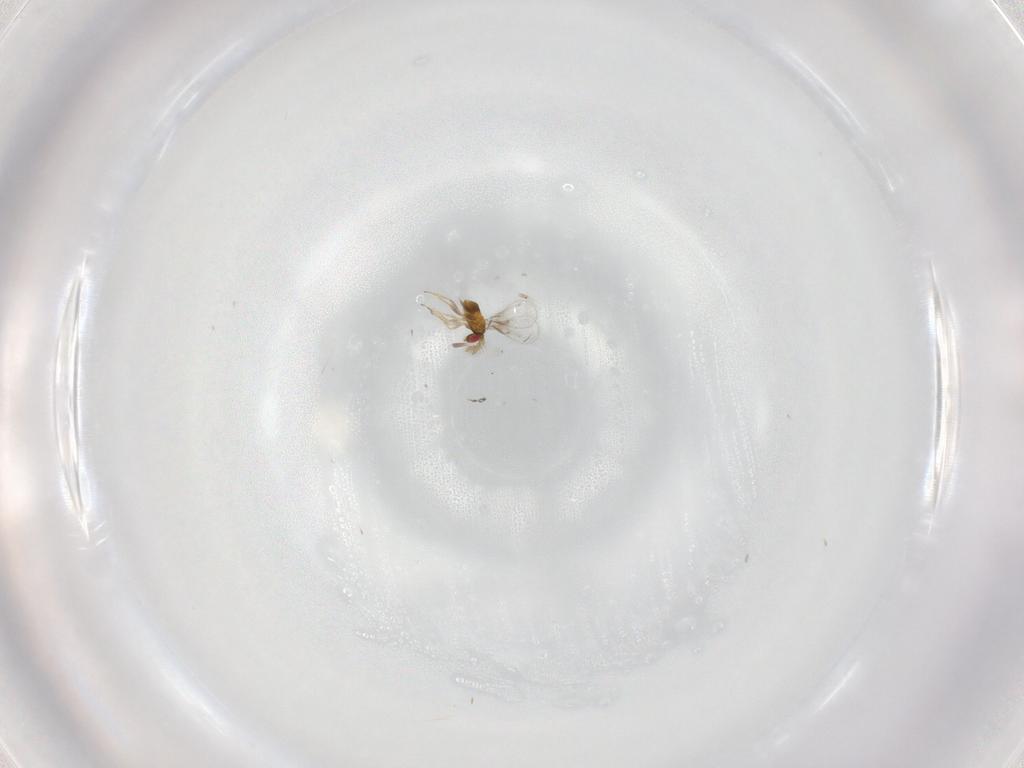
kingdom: Animalia
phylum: Arthropoda
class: Insecta
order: Hymenoptera
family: Trichogrammatidae
